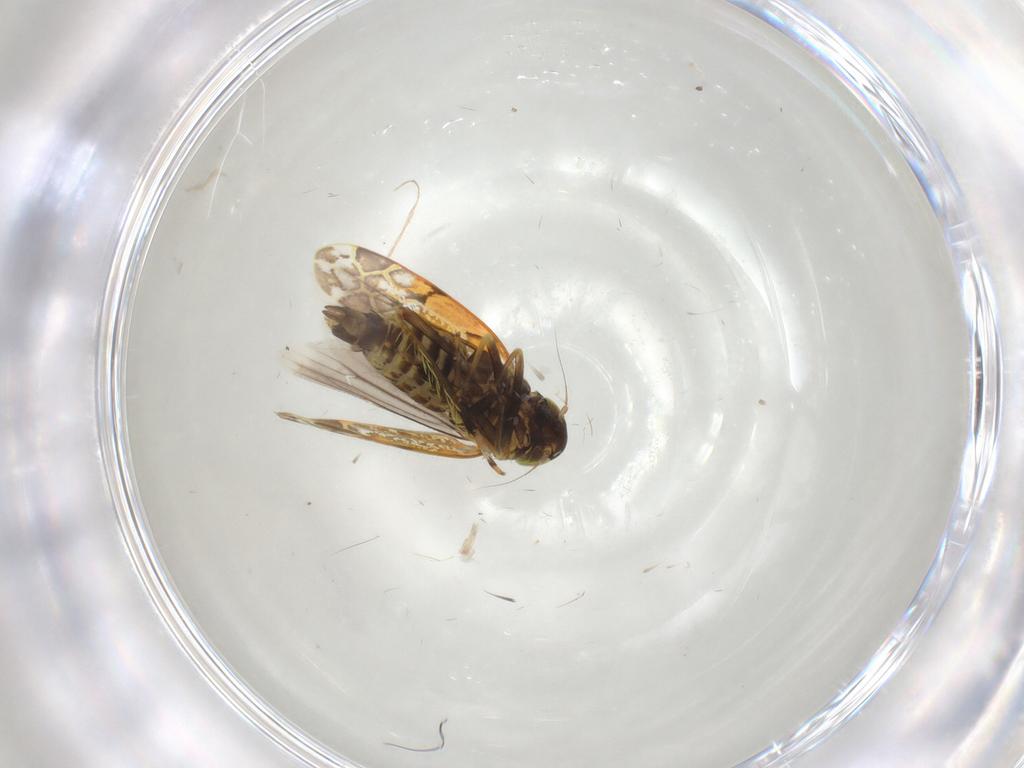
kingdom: Animalia
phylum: Arthropoda
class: Insecta
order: Hemiptera
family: Cicadellidae
